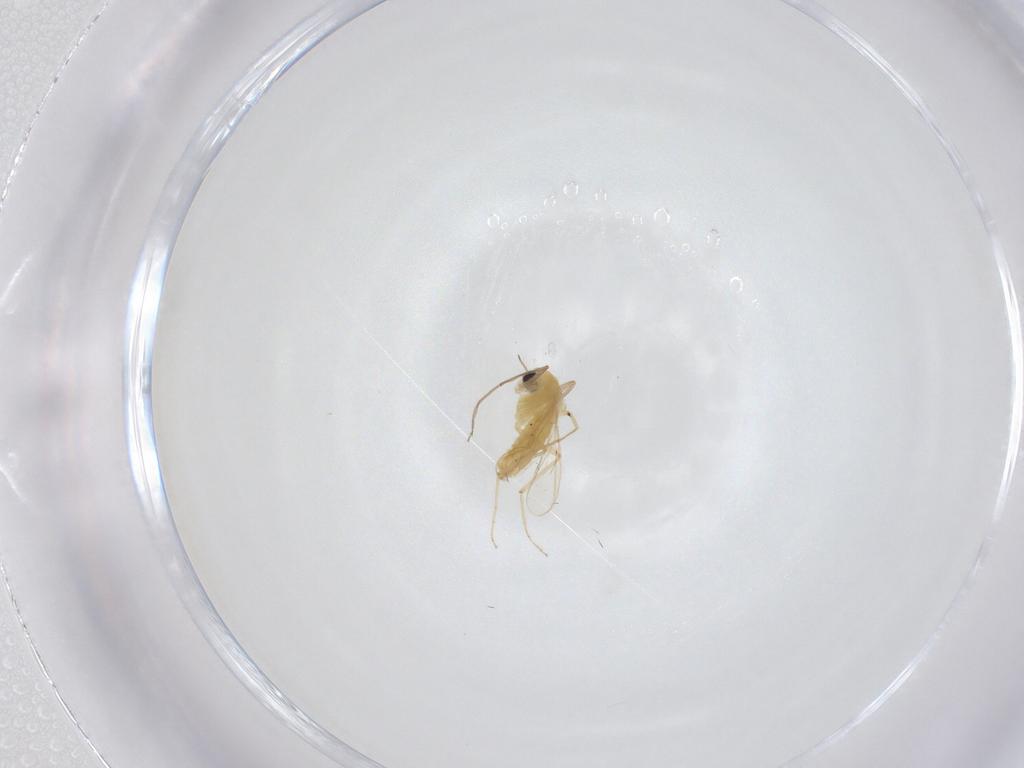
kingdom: Animalia
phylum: Arthropoda
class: Insecta
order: Diptera
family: Chironomidae
